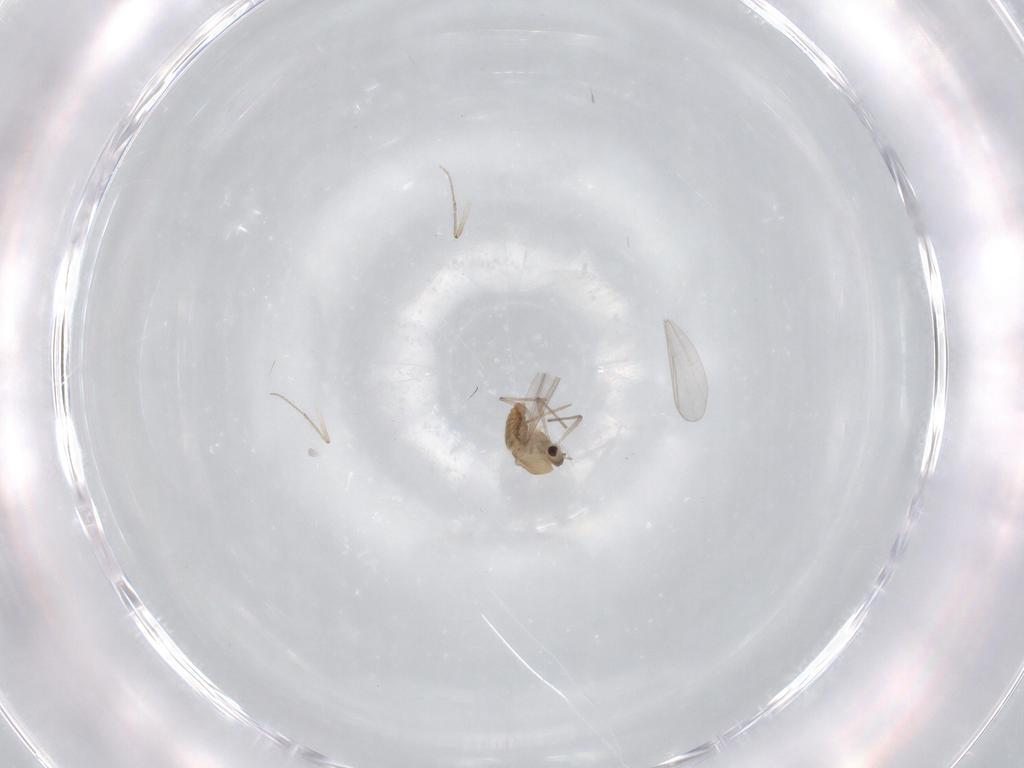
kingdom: Animalia
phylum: Arthropoda
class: Insecta
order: Diptera
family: Chironomidae
